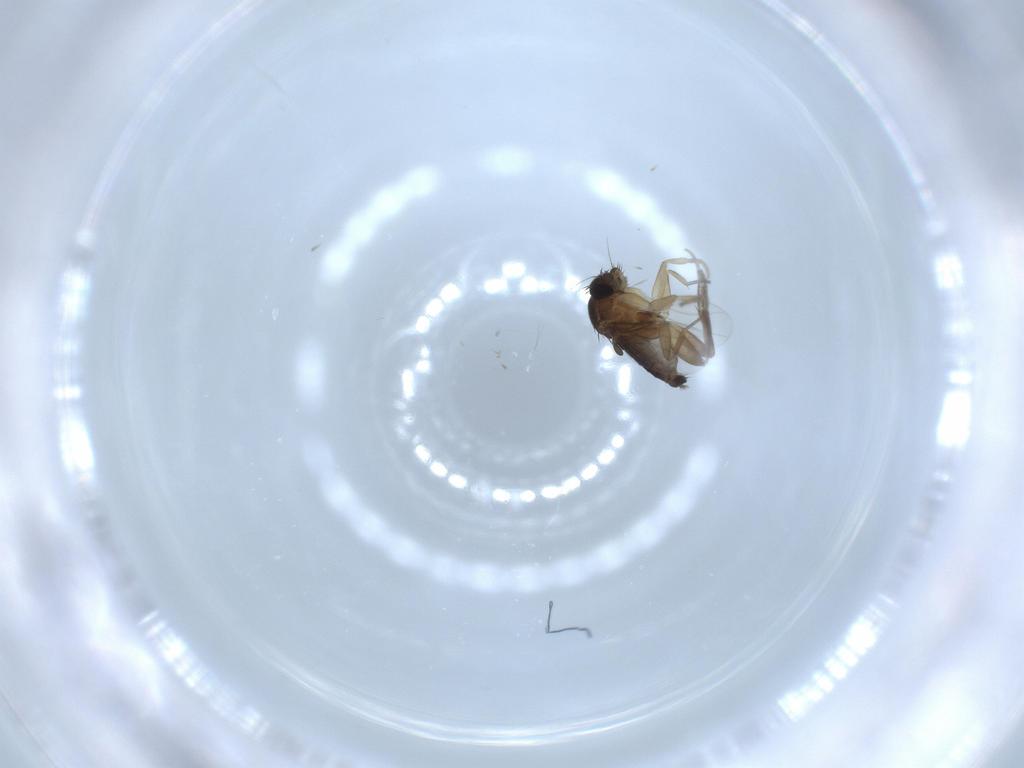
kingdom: Animalia
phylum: Arthropoda
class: Insecta
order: Diptera
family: Phoridae
